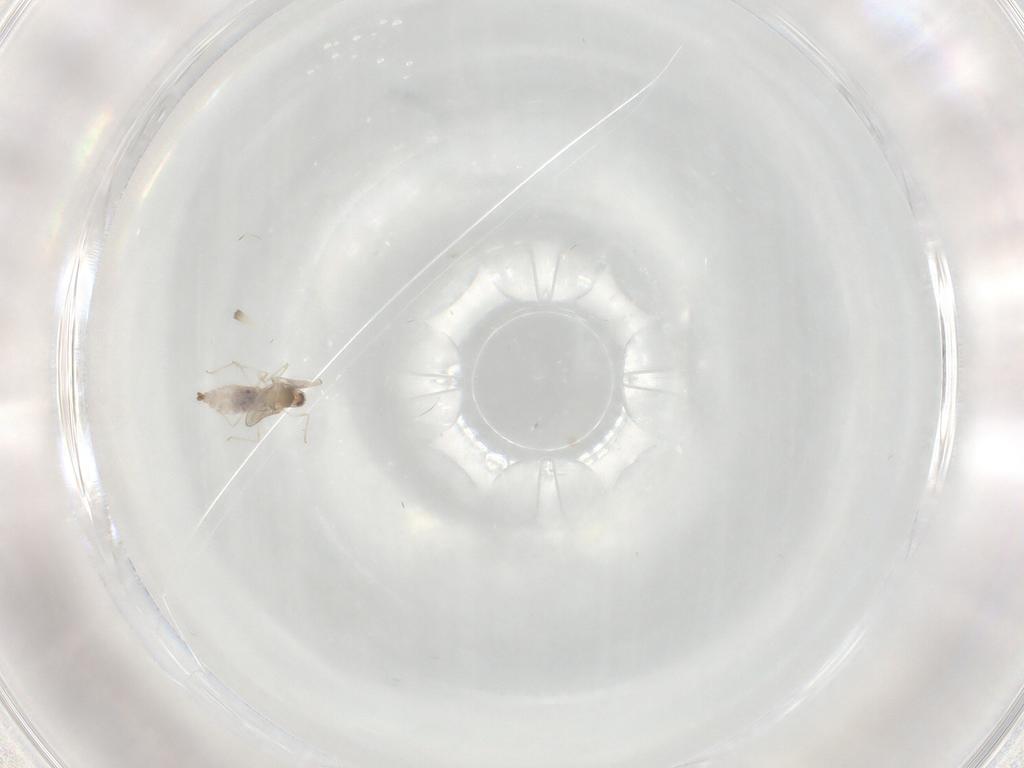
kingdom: Animalia
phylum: Arthropoda
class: Insecta
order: Diptera
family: Cecidomyiidae
